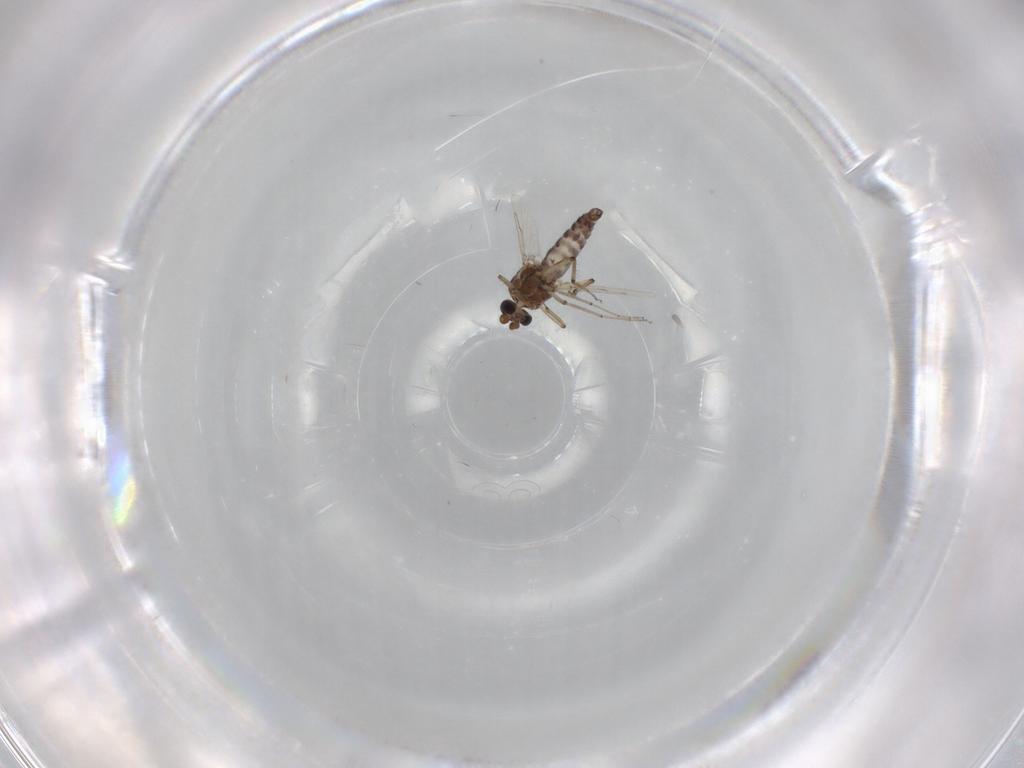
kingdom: Animalia
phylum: Arthropoda
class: Insecta
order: Diptera
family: Ceratopogonidae
